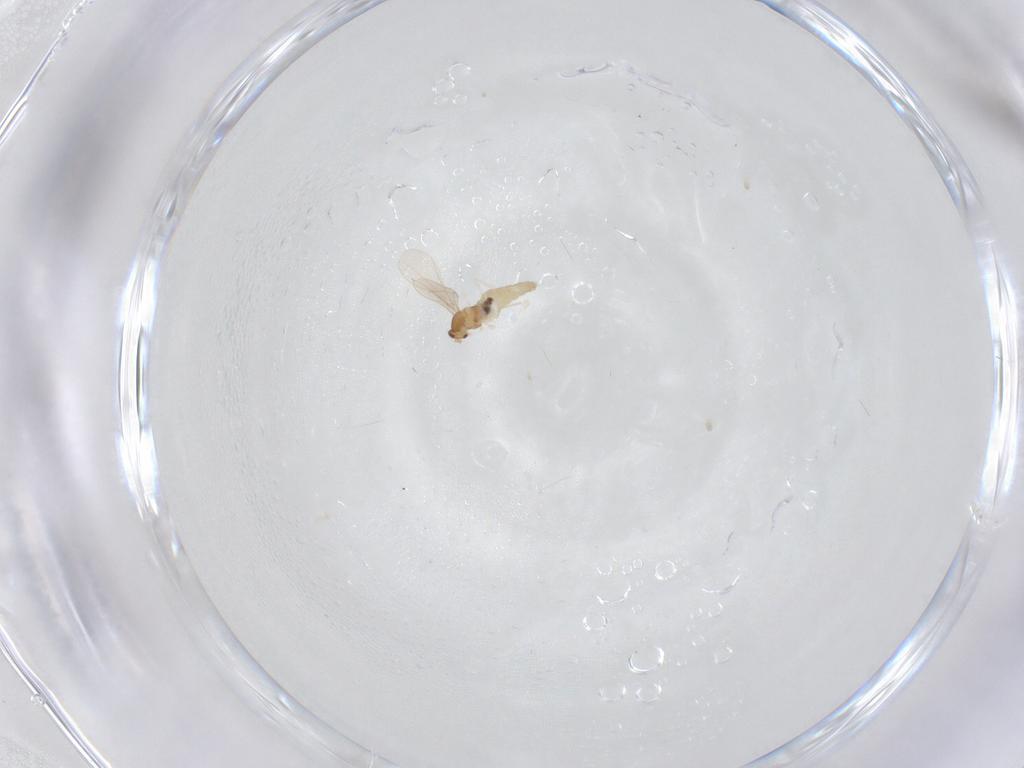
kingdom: Animalia
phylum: Arthropoda
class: Insecta
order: Diptera
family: Cecidomyiidae
